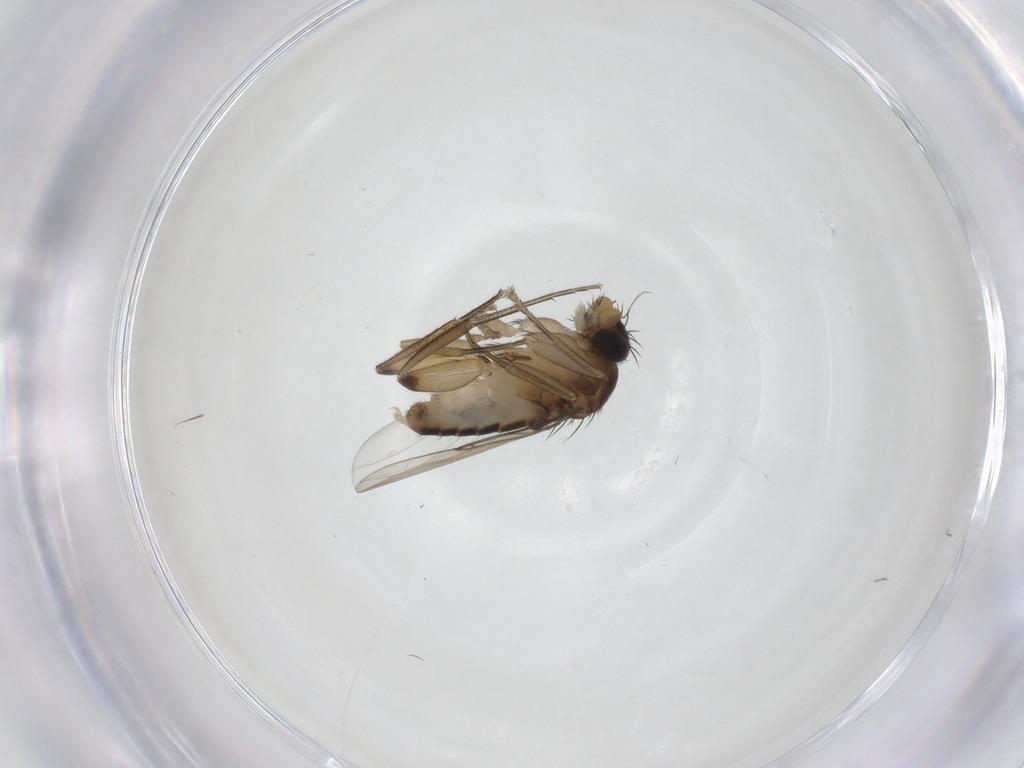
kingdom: Animalia
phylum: Arthropoda
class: Insecta
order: Diptera
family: Phoridae
